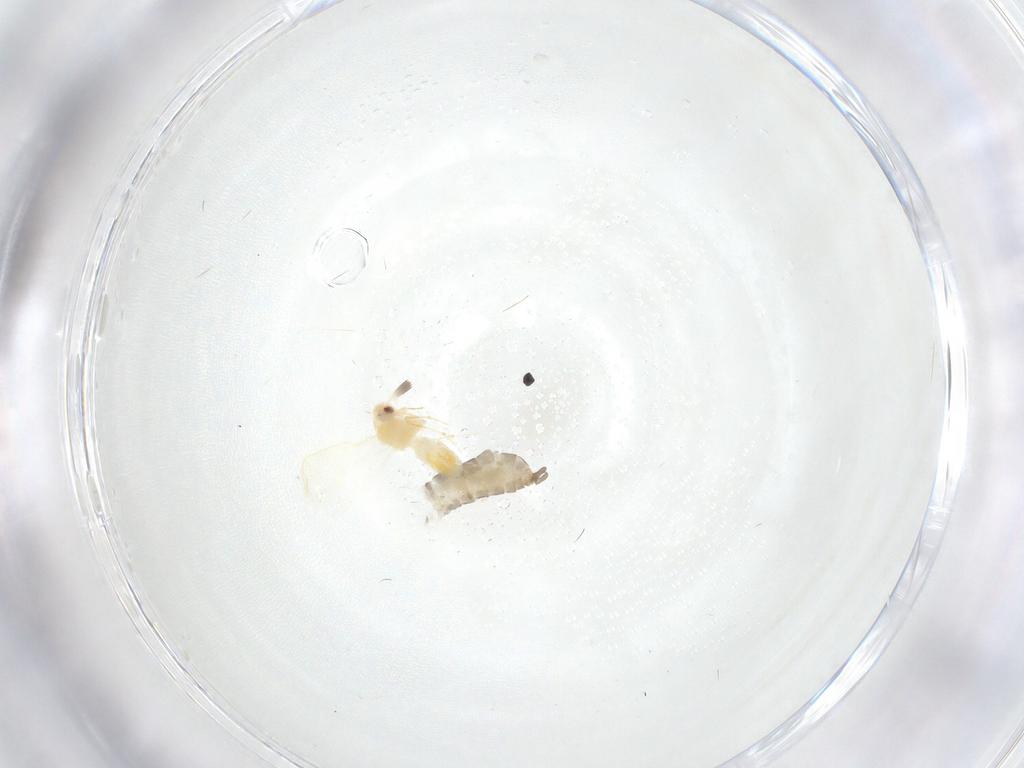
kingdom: Animalia
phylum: Arthropoda
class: Insecta
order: Hemiptera
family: Aleyrodidae
